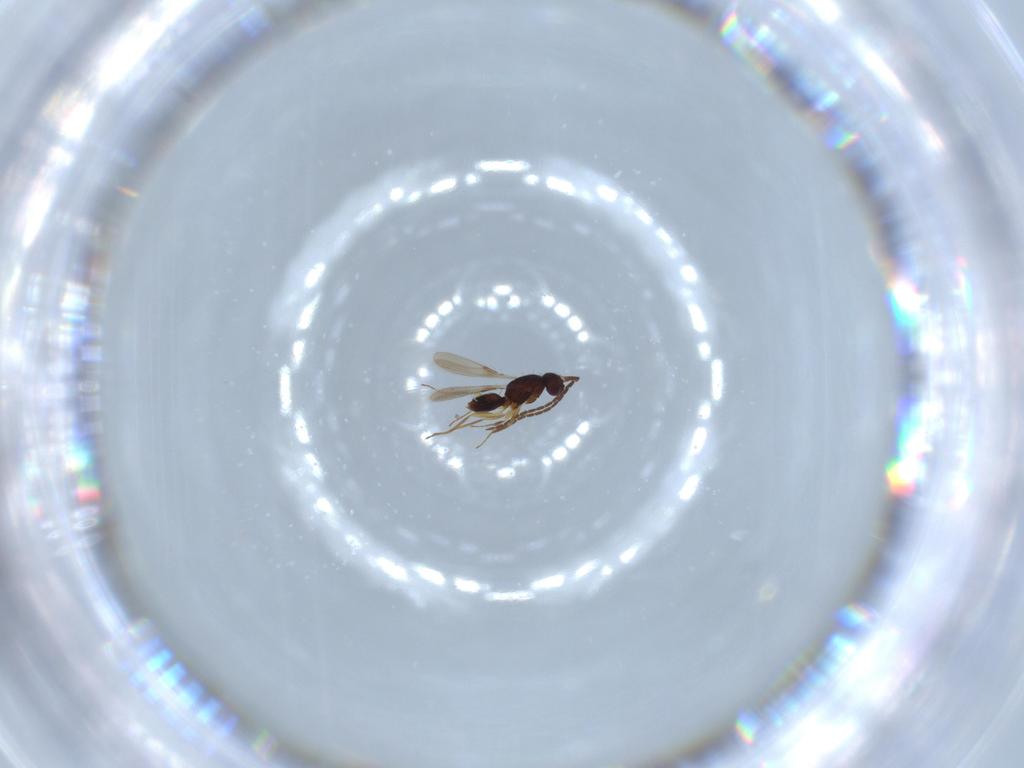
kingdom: Animalia
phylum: Arthropoda
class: Insecta
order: Hymenoptera
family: Mymaridae
